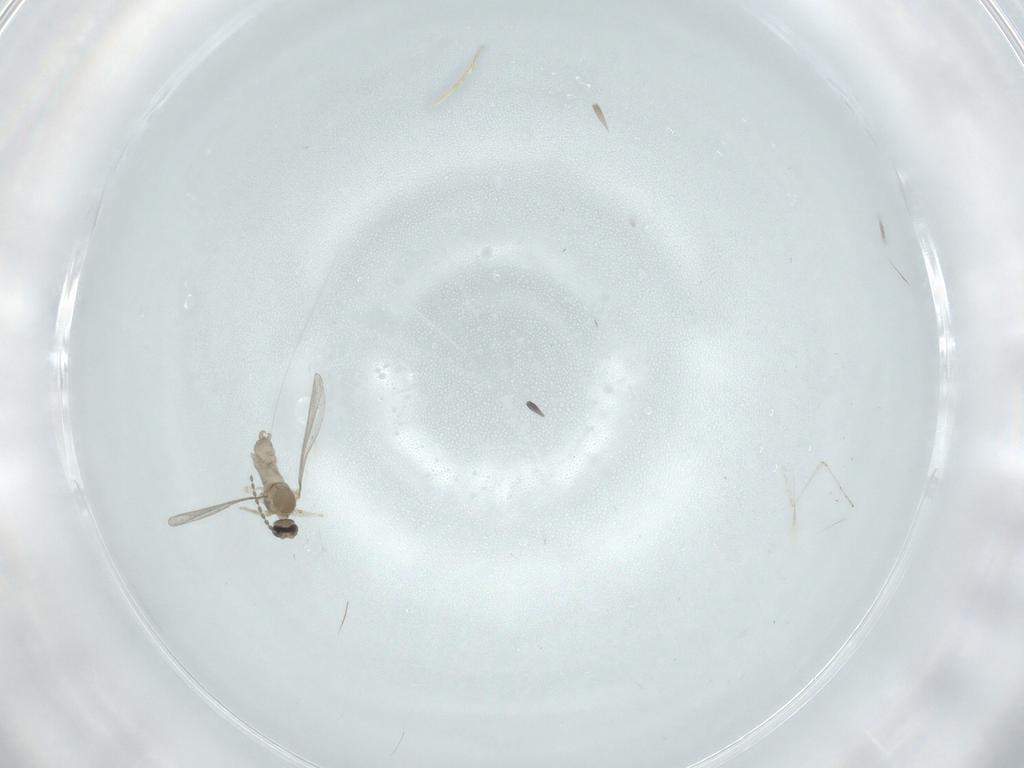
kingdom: Animalia
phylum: Arthropoda
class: Insecta
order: Diptera
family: Cecidomyiidae
